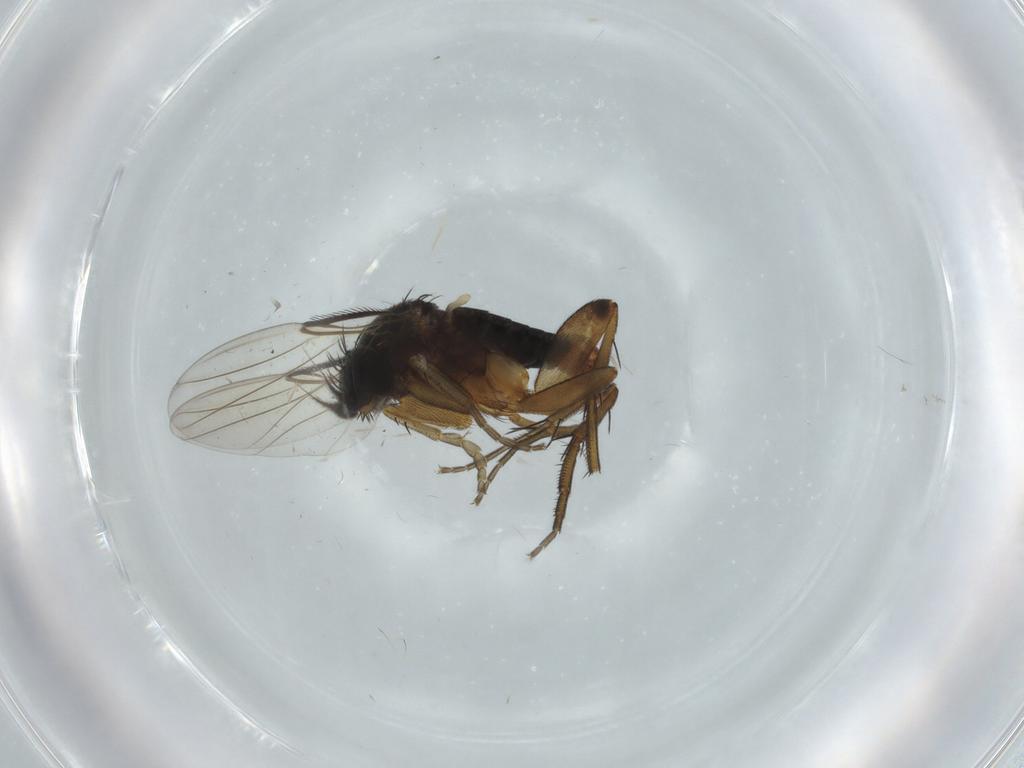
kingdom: Animalia
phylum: Arthropoda
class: Insecta
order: Diptera
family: Phoridae
